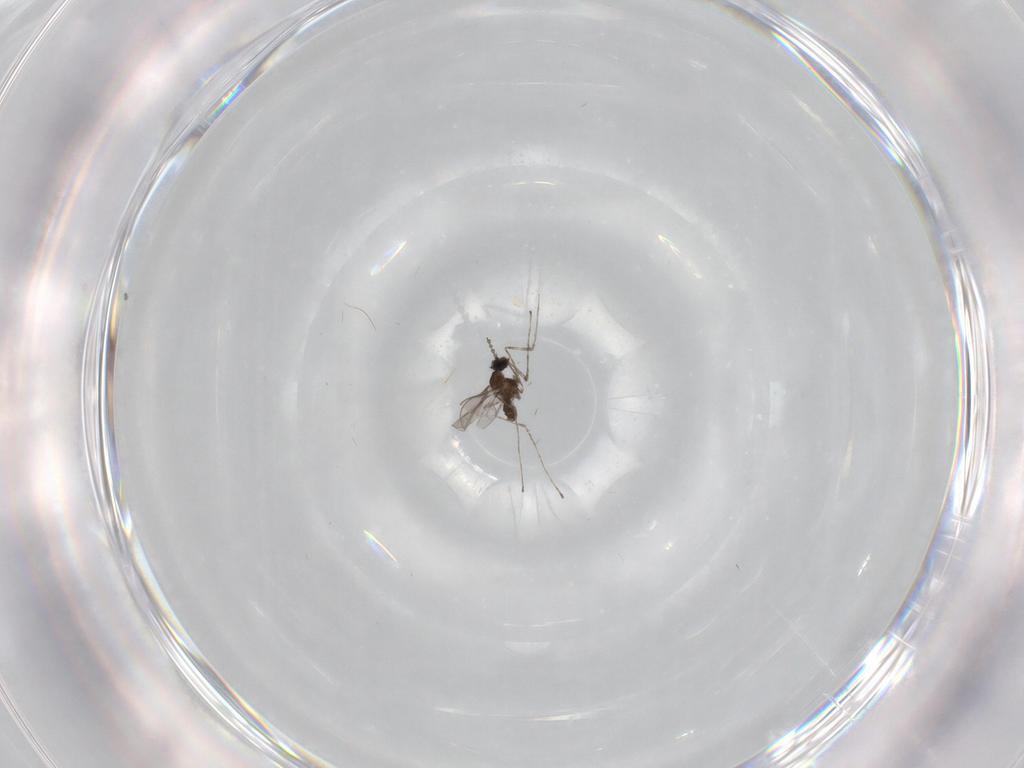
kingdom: Animalia
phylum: Arthropoda
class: Insecta
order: Diptera
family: Cecidomyiidae
